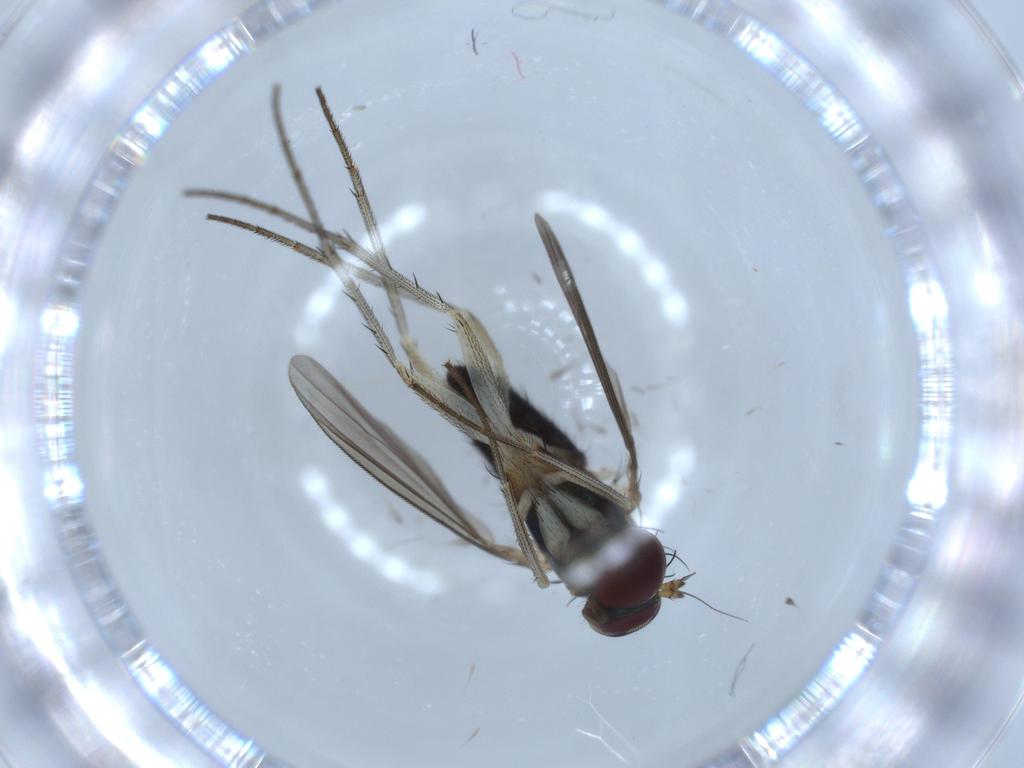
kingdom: Animalia
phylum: Arthropoda
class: Insecta
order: Diptera
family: Dolichopodidae
